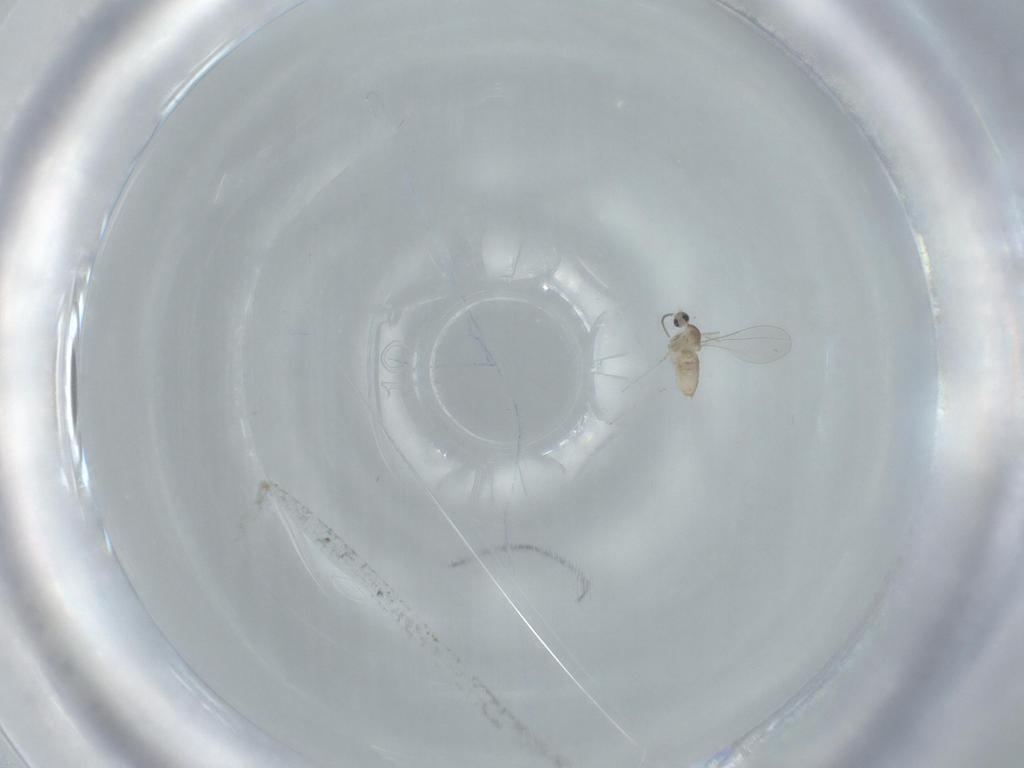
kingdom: Animalia
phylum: Arthropoda
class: Insecta
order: Diptera
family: Cecidomyiidae
